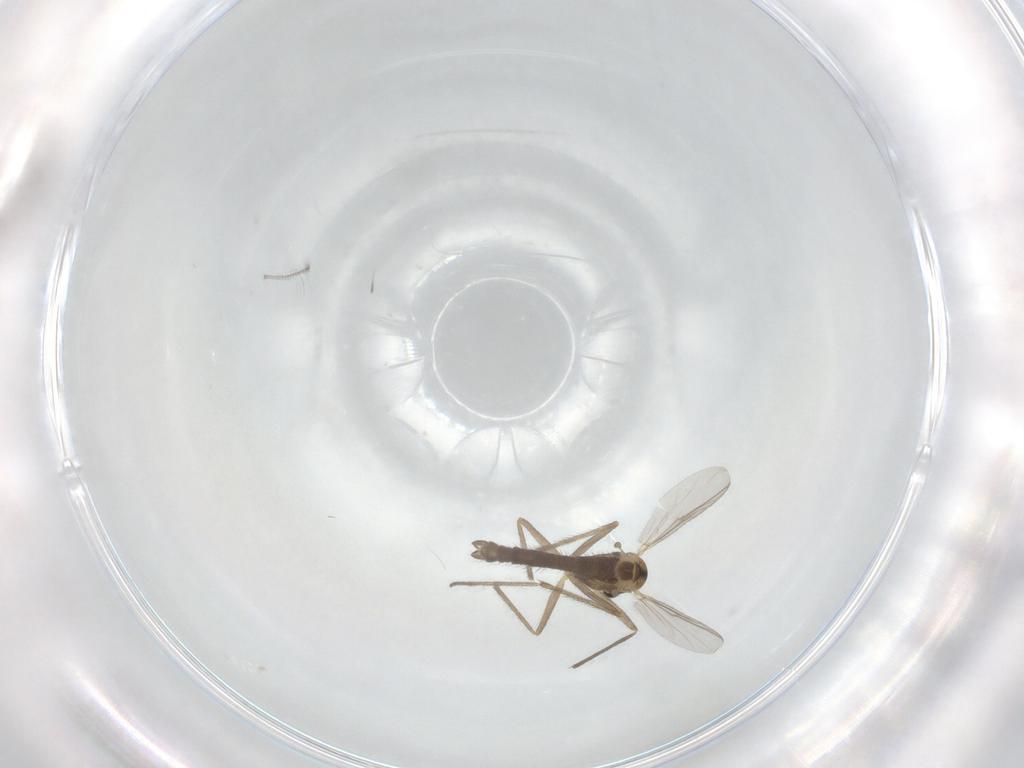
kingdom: Animalia
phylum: Arthropoda
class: Insecta
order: Diptera
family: Chironomidae
